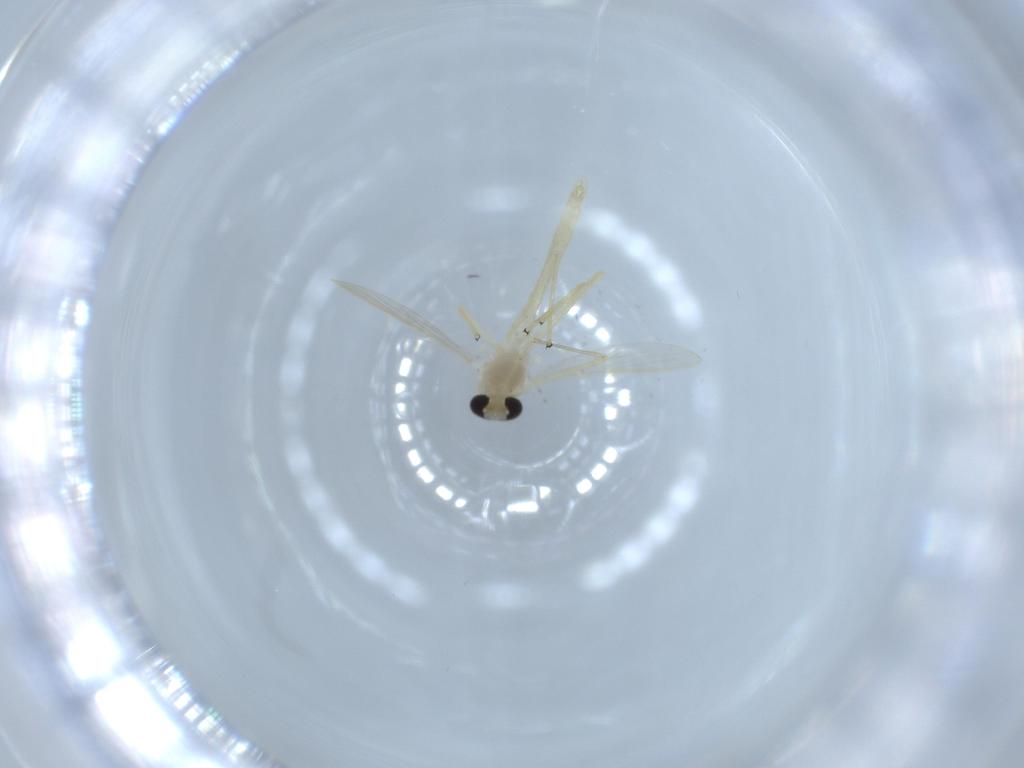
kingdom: Animalia
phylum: Arthropoda
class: Insecta
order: Diptera
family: Chironomidae
